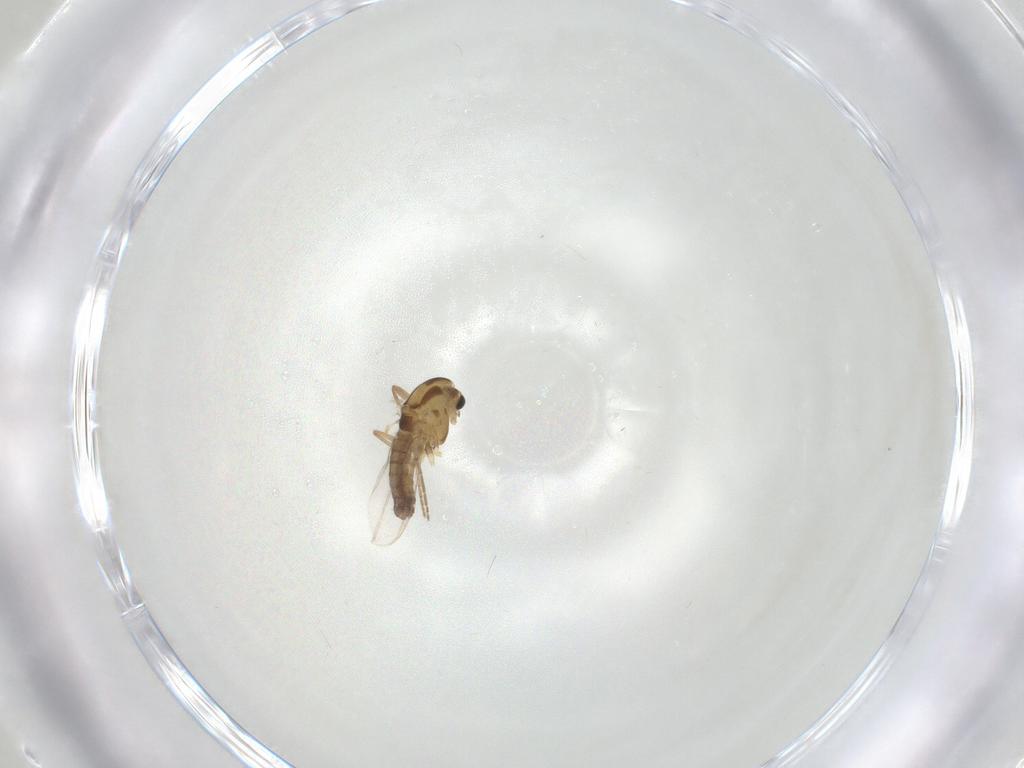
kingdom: Animalia
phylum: Arthropoda
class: Insecta
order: Diptera
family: Chironomidae
